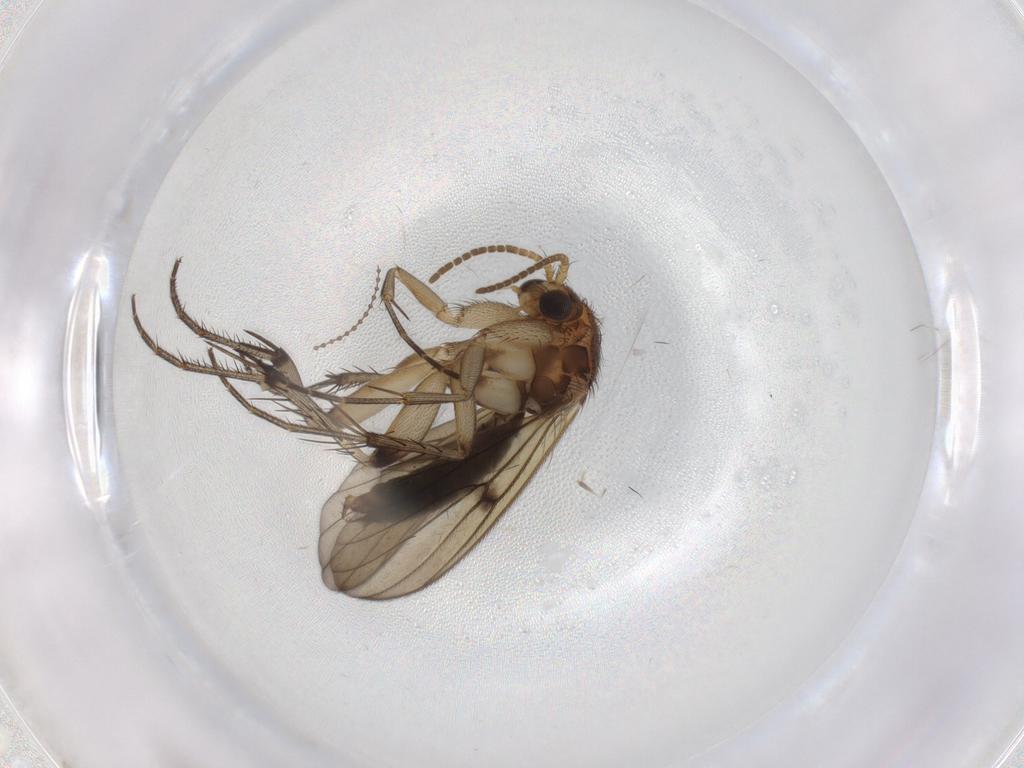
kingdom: Animalia
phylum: Arthropoda
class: Insecta
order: Diptera
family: Mycetophilidae
